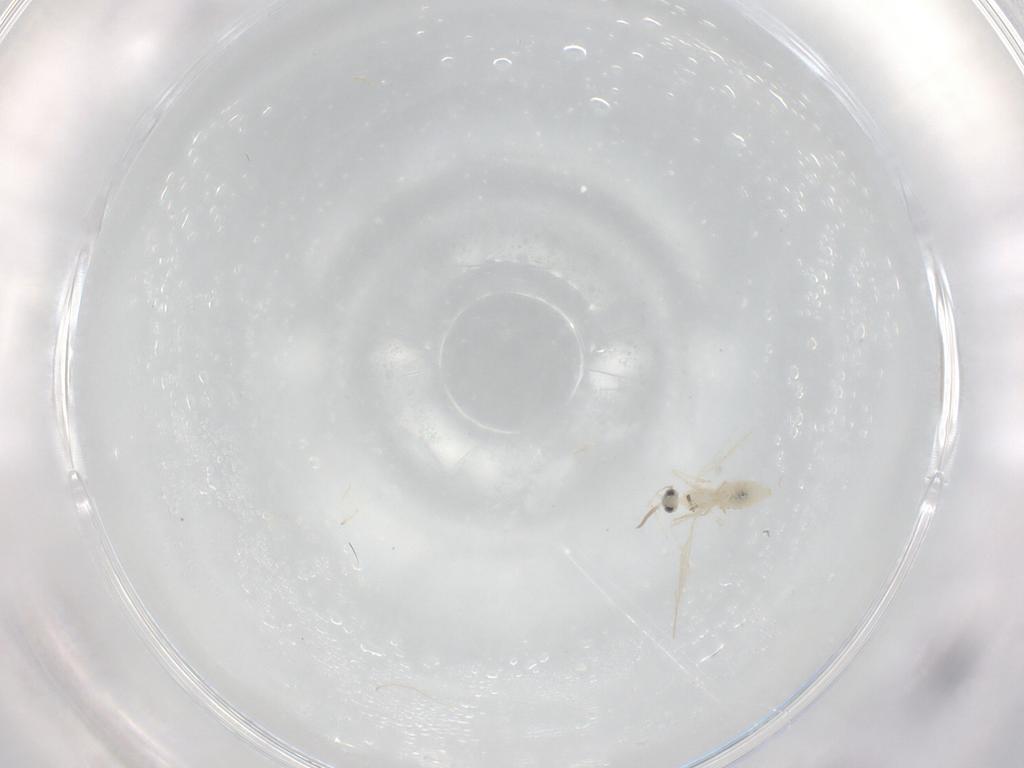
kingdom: Animalia
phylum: Arthropoda
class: Insecta
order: Diptera
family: Cecidomyiidae
